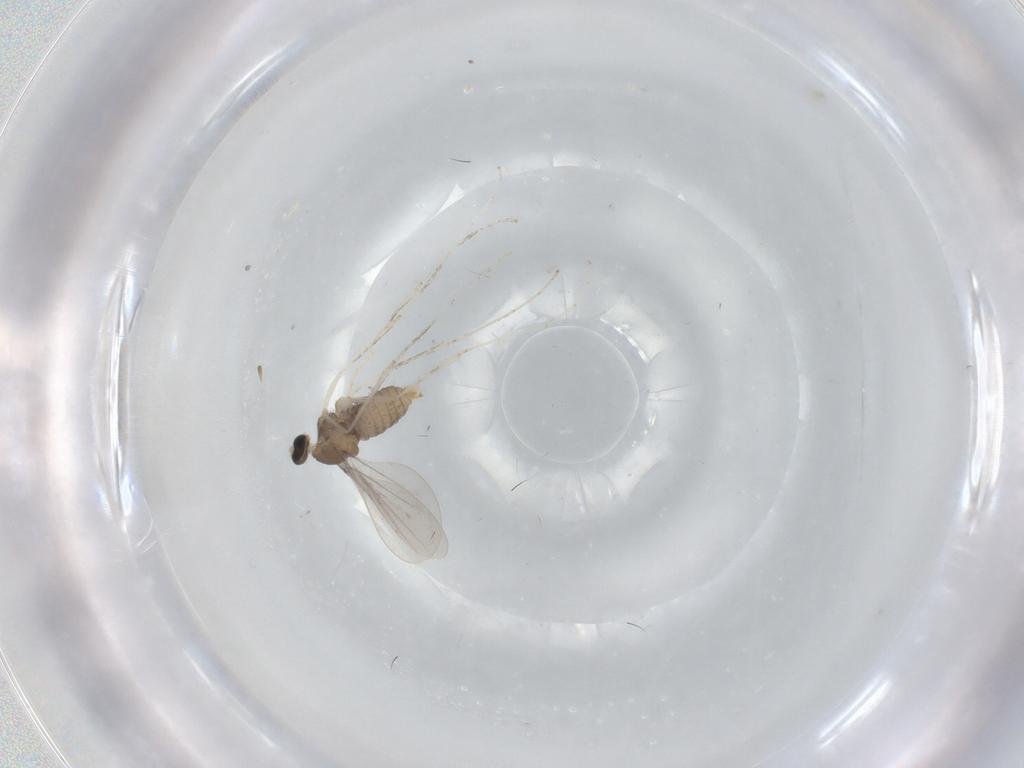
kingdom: Animalia
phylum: Arthropoda
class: Insecta
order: Diptera
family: Cecidomyiidae
